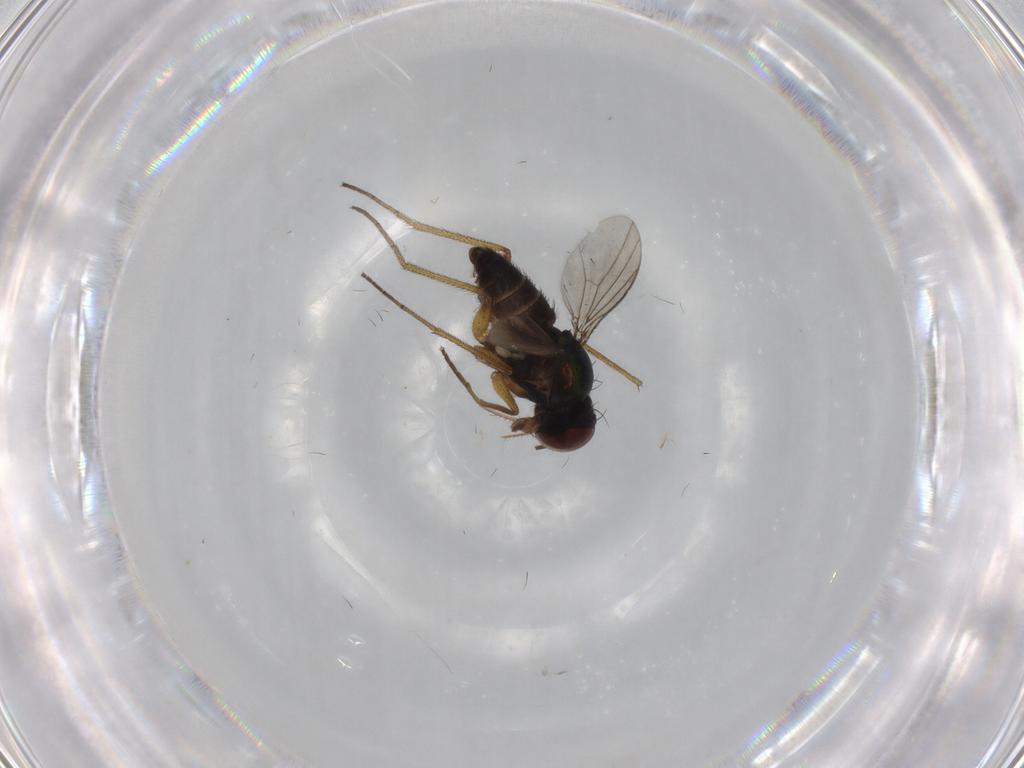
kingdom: Animalia
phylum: Arthropoda
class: Insecta
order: Diptera
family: Dolichopodidae
